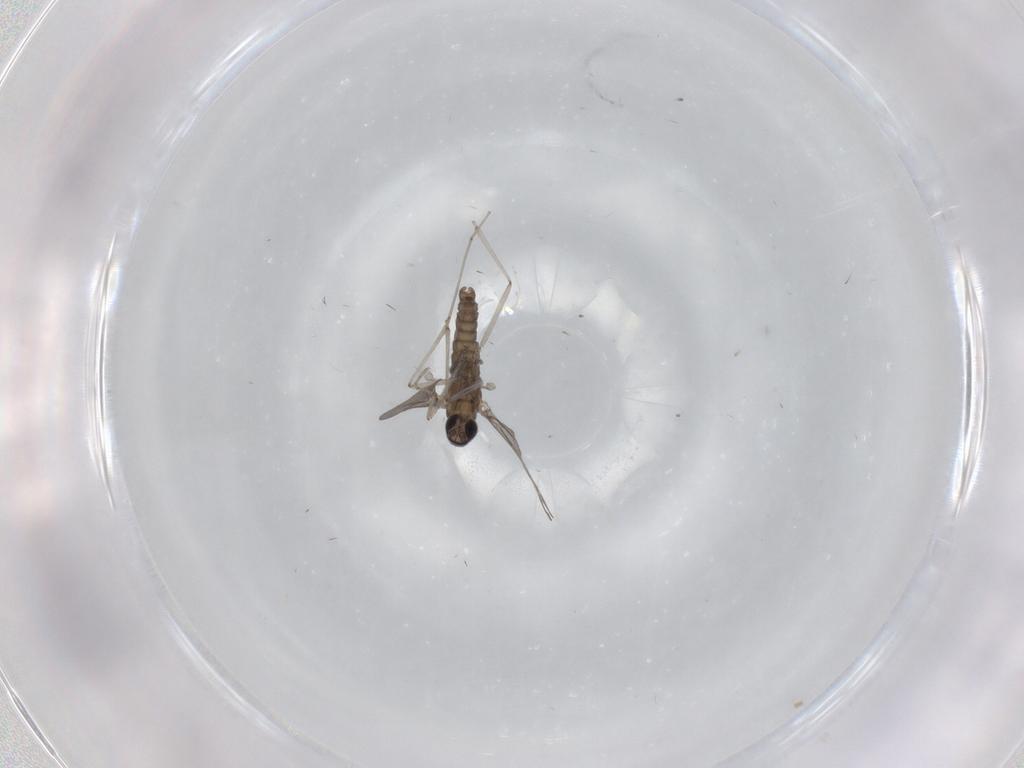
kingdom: Animalia
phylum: Arthropoda
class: Insecta
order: Diptera
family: Cecidomyiidae
